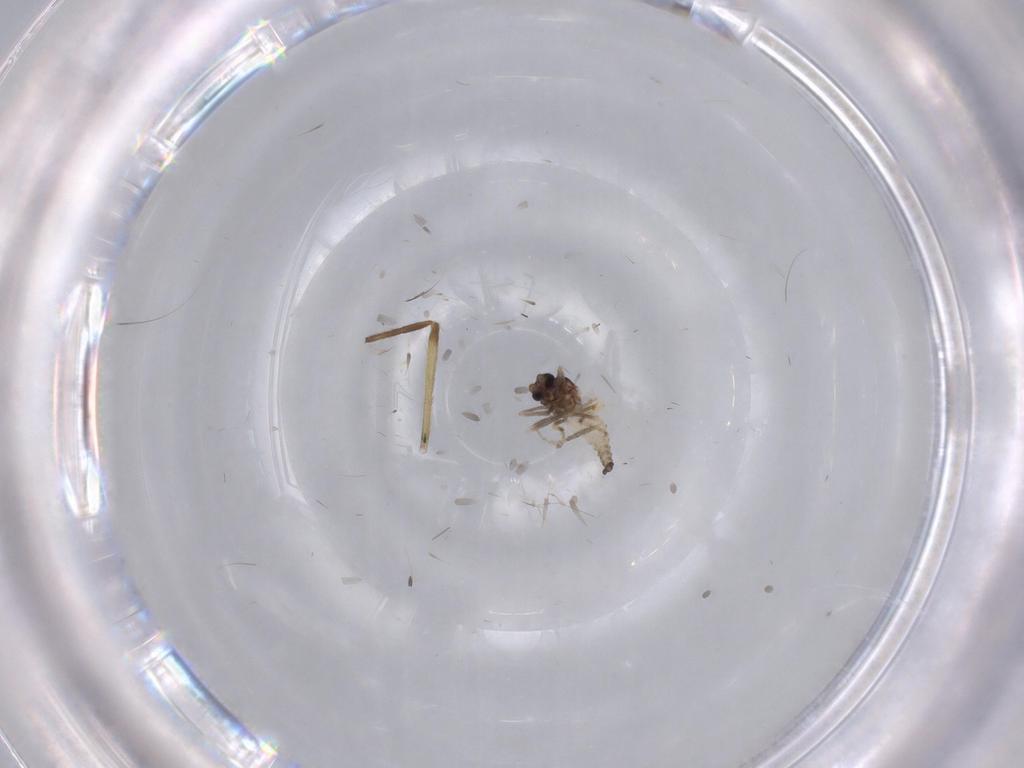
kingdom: Animalia
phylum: Arthropoda
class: Insecta
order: Diptera
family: Ceratopogonidae
